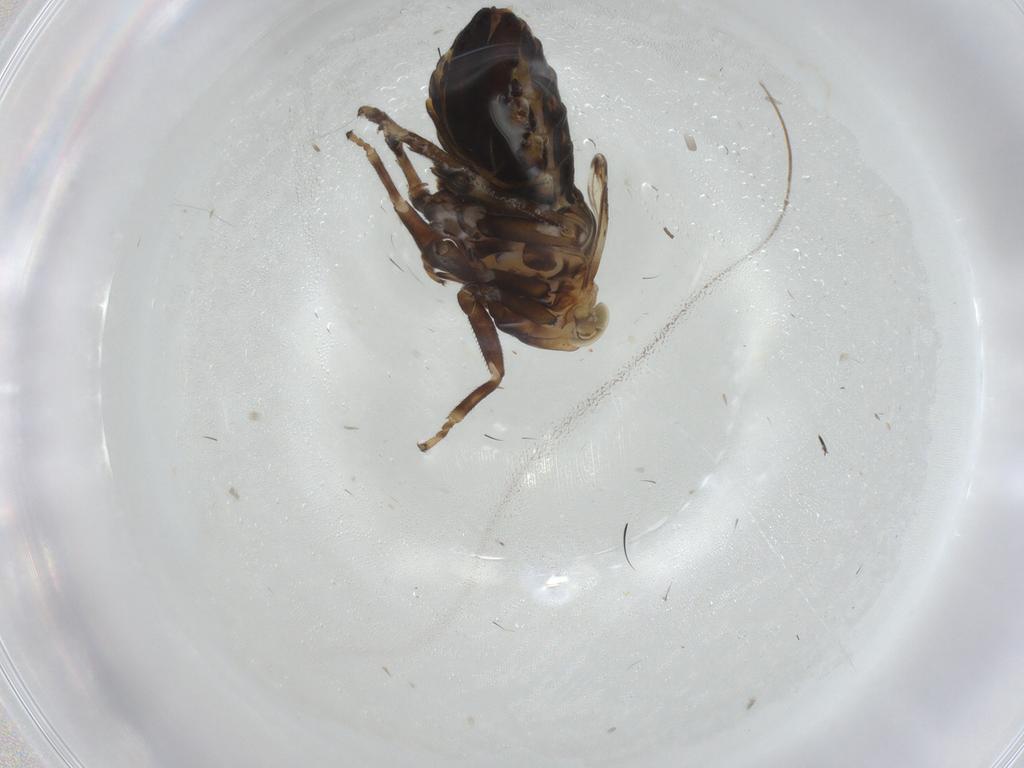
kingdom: Animalia
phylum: Arthropoda
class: Insecta
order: Hemiptera
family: Delphacidae
